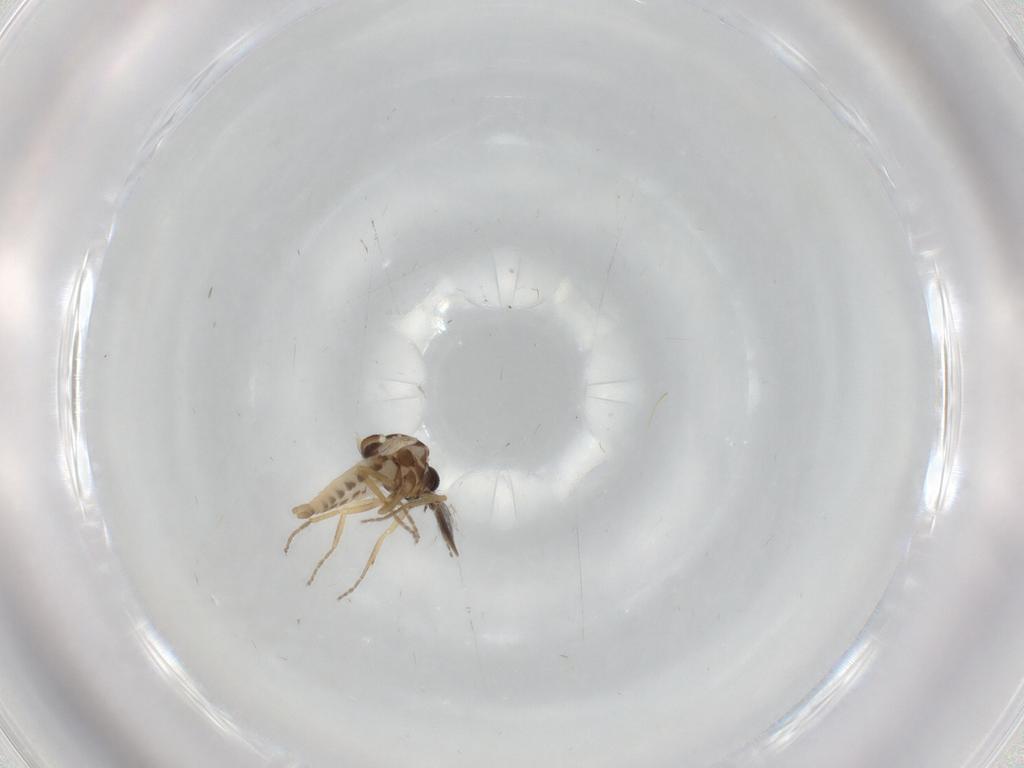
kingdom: Animalia
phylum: Arthropoda
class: Insecta
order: Diptera
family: Ceratopogonidae
